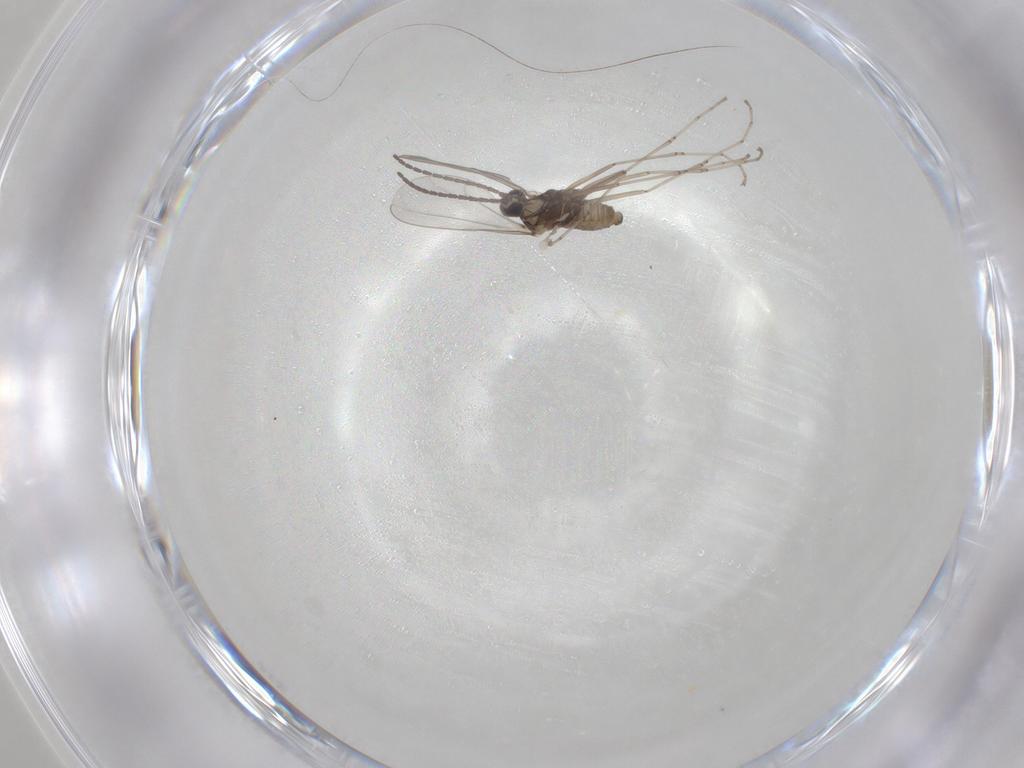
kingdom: Animalia
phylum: Arthropoda
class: Insecta
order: Diptera
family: Cecidomyiidae
